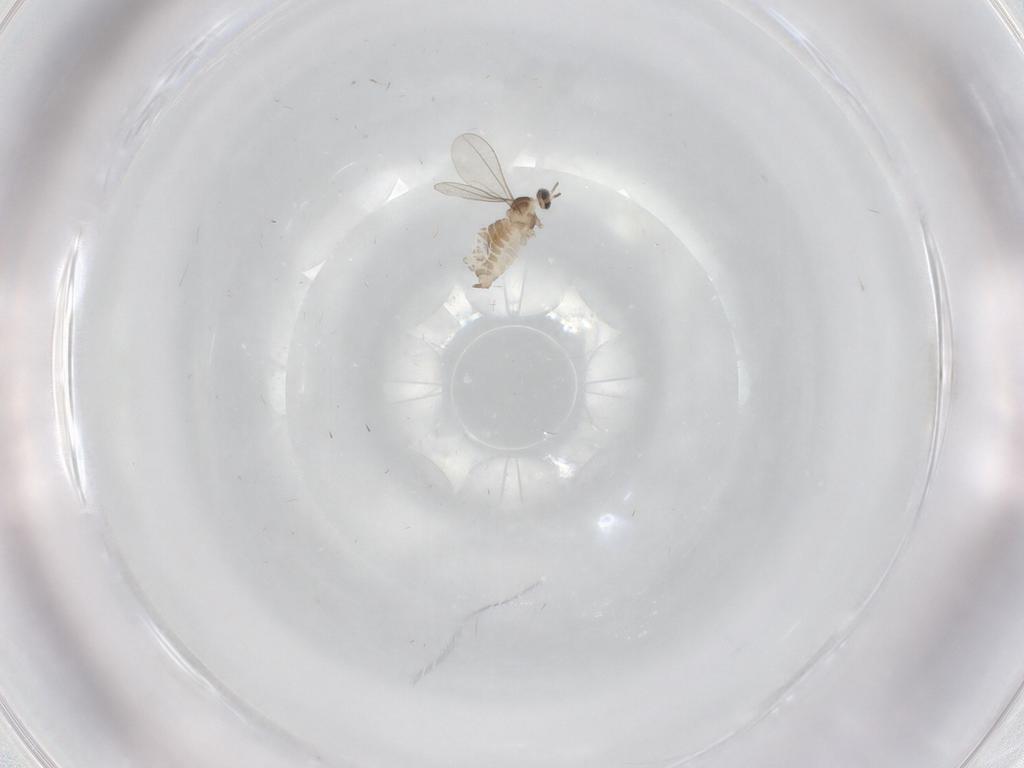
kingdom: Animalia
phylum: Arthropoda
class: Insecta
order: Diptera
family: Cecidomyiidae
